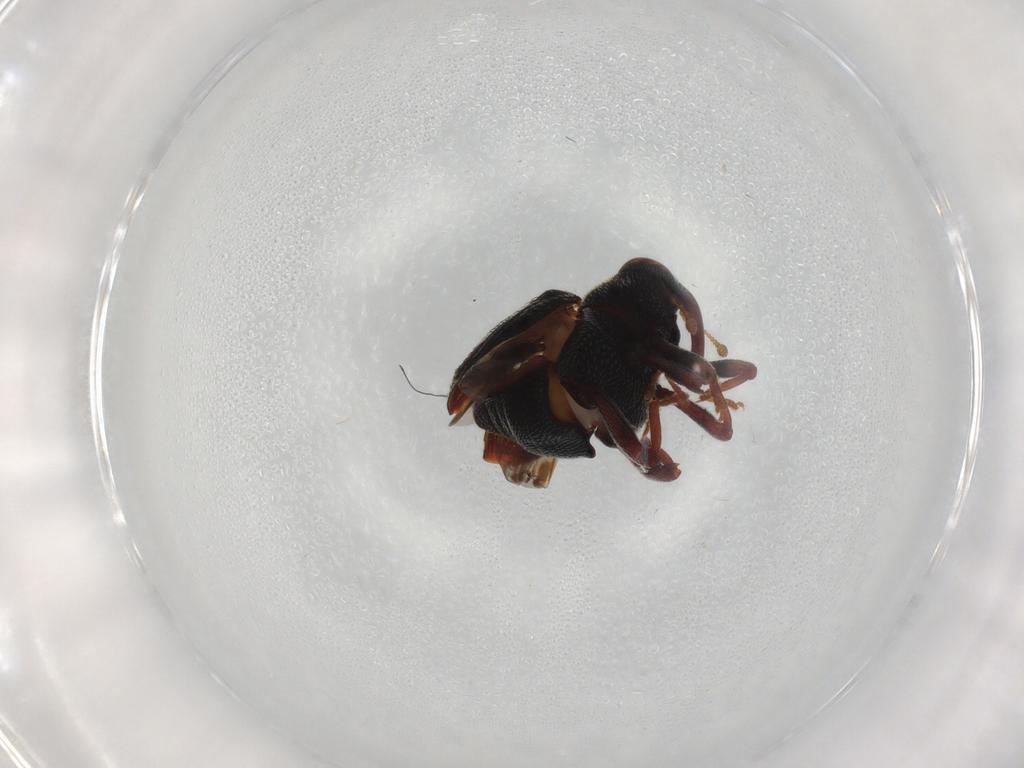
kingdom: Animalia
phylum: Arthropoda
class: Insecta
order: Coleoptera
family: Curculionidae
